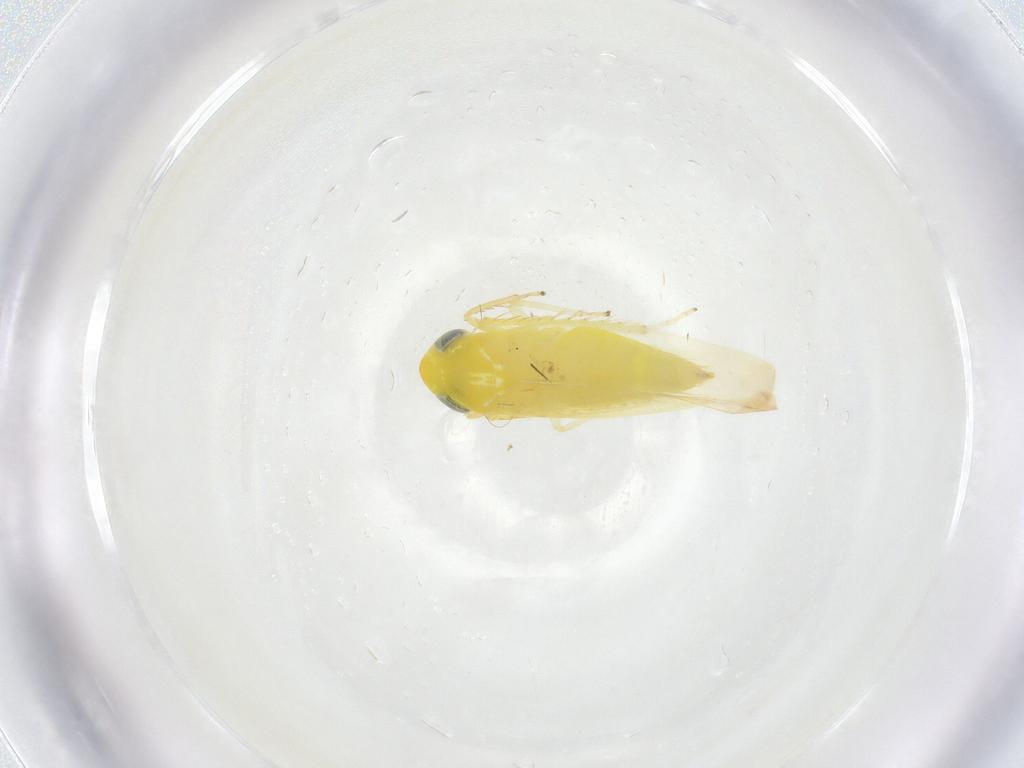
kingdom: Animalia
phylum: Arthropoda
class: Insecta
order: Hemiptera
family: Cicadellidae
